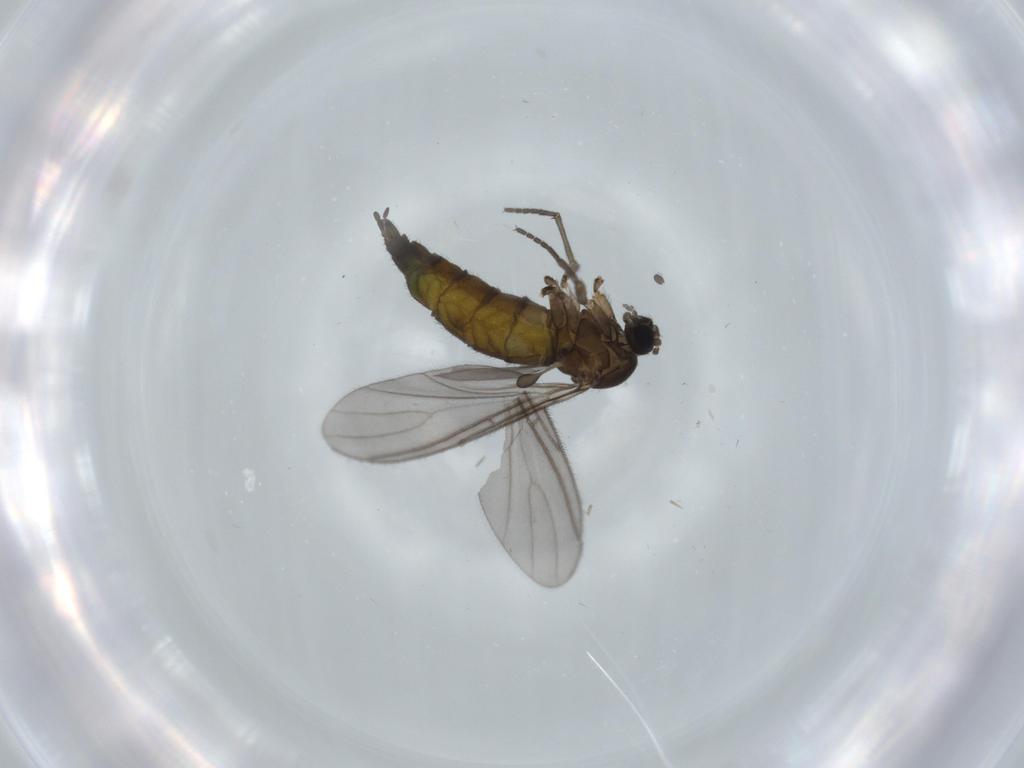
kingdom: Animalia
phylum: Arthropoda
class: Insecta
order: Diptera
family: Sciaridae
